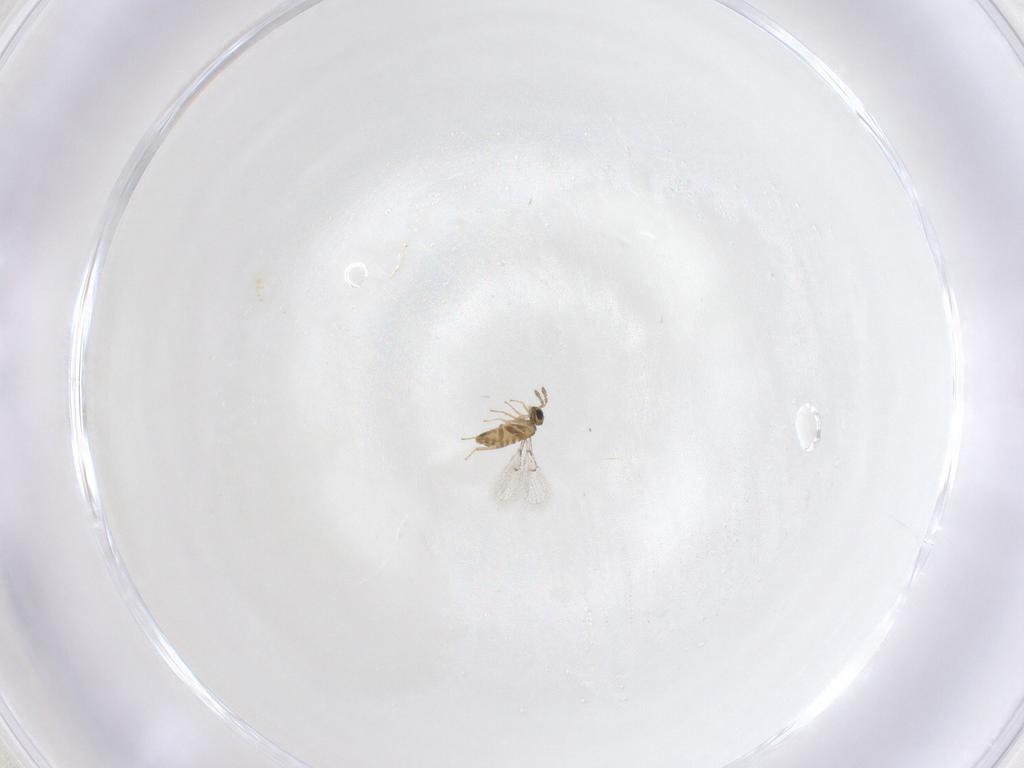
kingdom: Animalia
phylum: Arthropoda
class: Insecta
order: Hymenoptera
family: Trichogrammatidae
